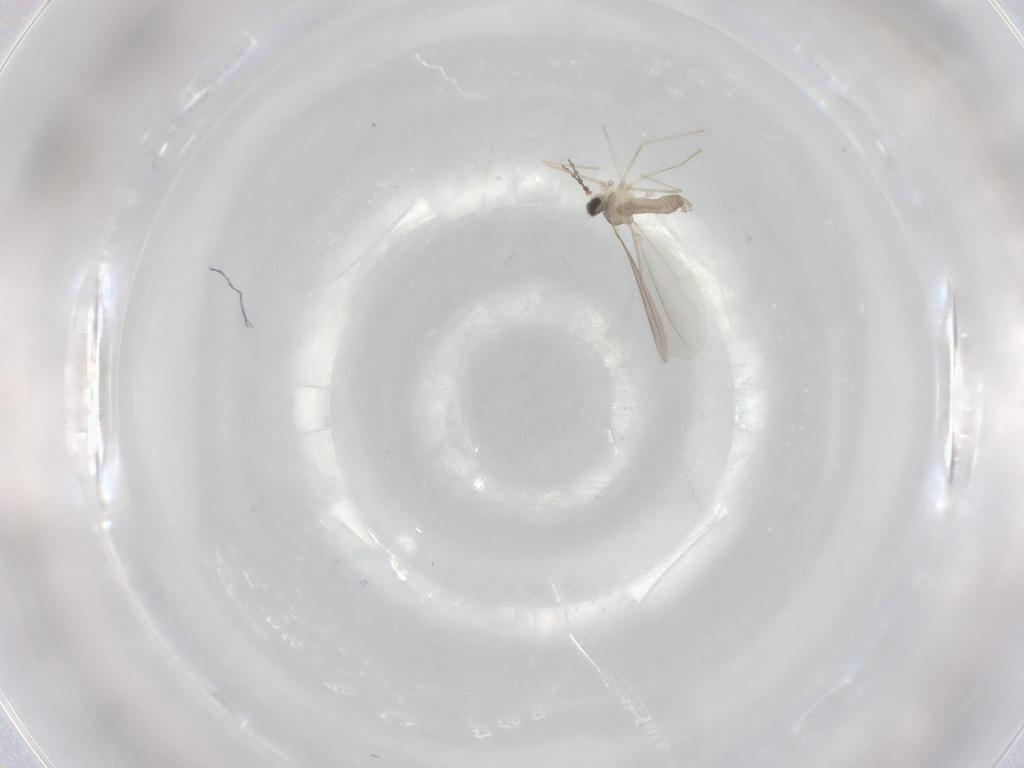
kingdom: Animalia
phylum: Arthropoda
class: Insecta
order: Diptera
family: Cecidomyiidae
